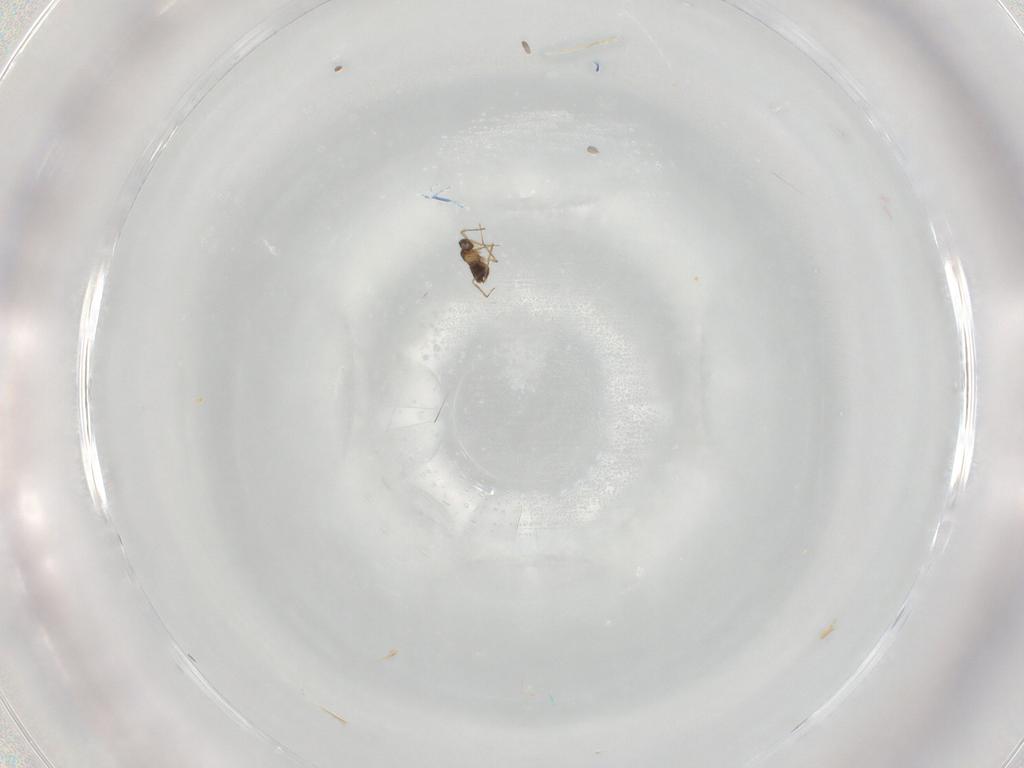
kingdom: Animalia
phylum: Arthropoda
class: Insecta
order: Hymenoptera
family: Mymaridae
